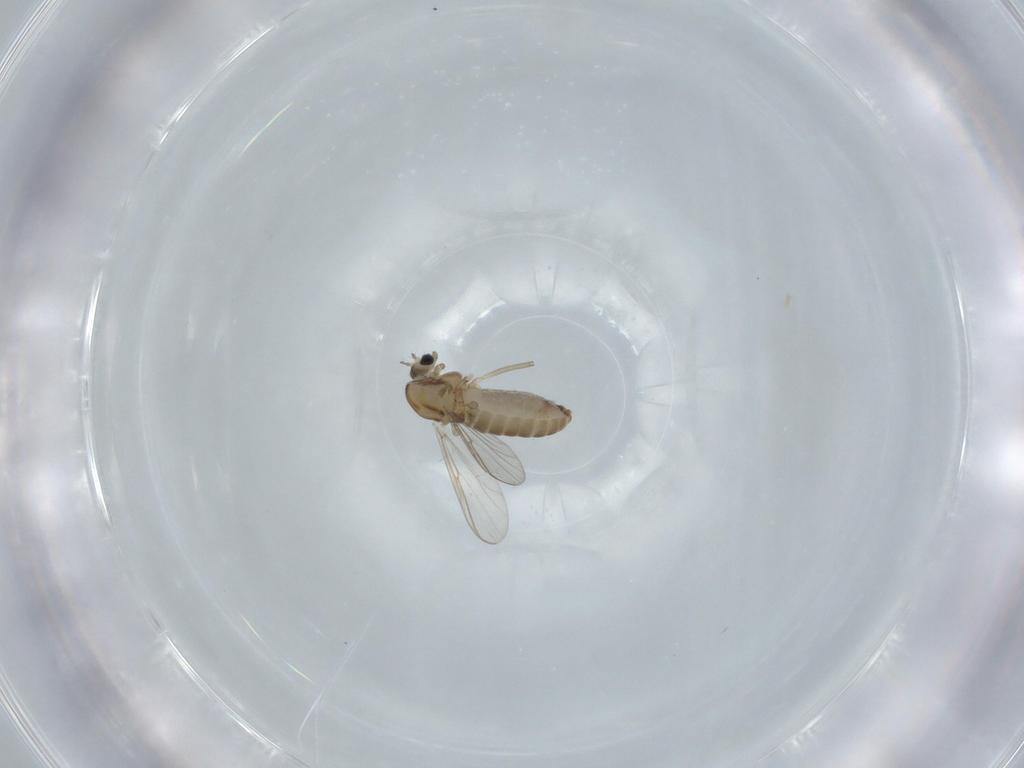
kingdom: Animalia
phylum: Arthropoda
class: Insecta
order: Diptera
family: Chironomidae
